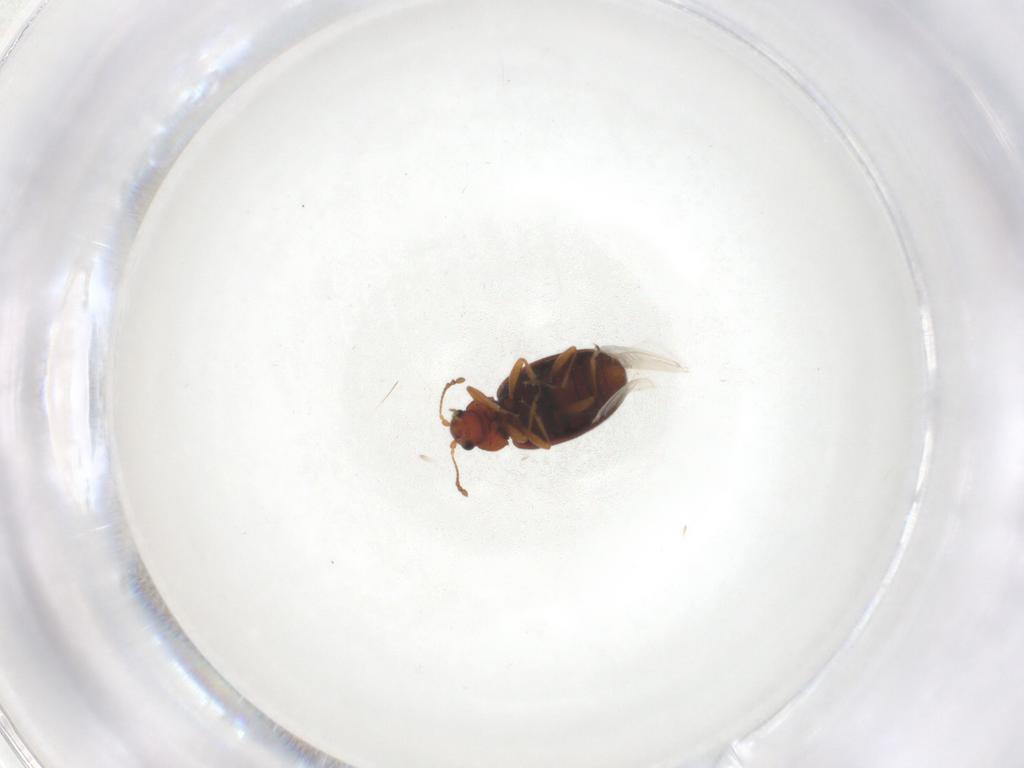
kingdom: Animalia
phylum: Arthropoda
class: Insecta
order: Coleoptera
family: Latridiidae
